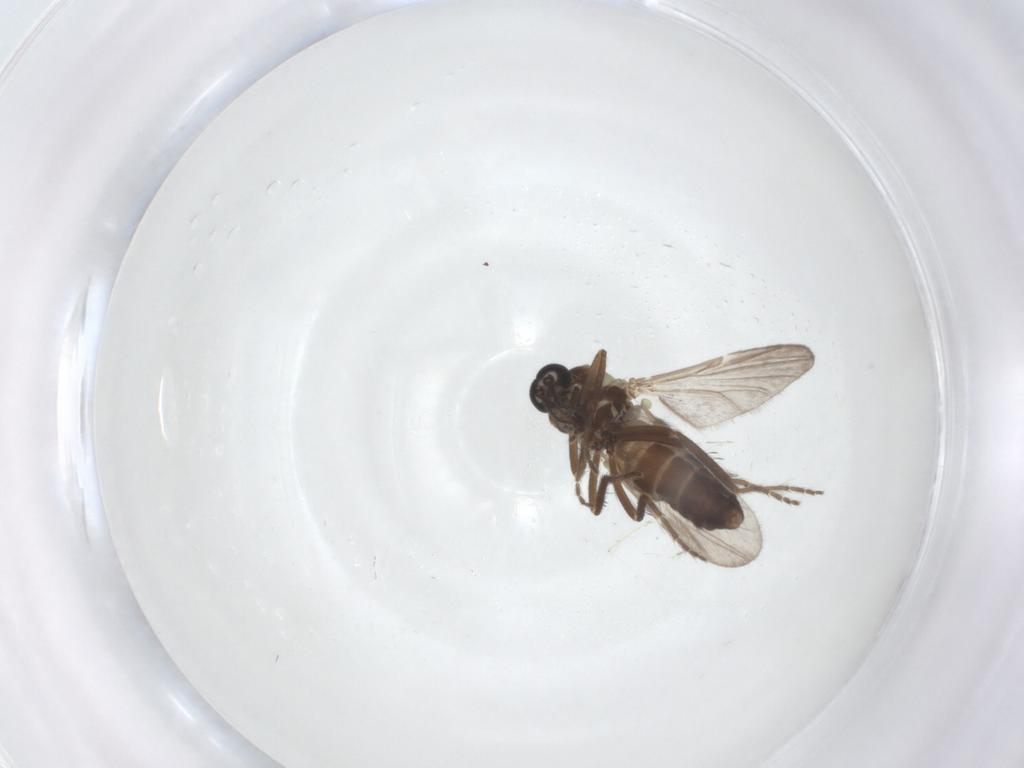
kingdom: Animalia
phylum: Arthropoda
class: Insecta
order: Diptera
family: Ceratopogonidae
